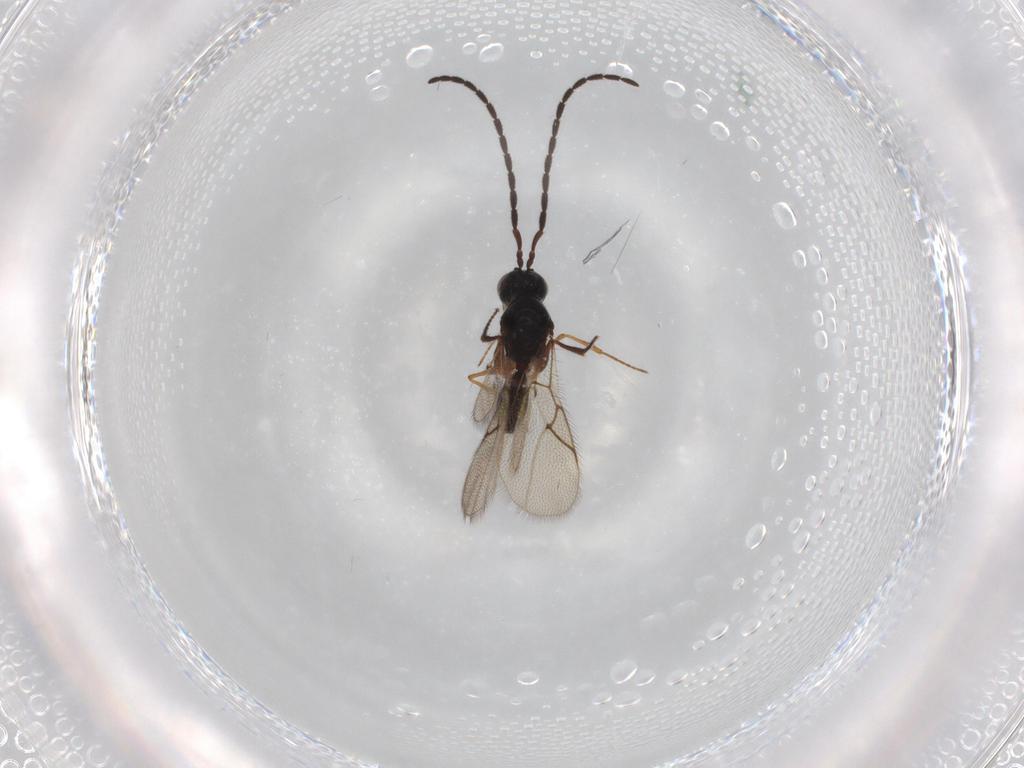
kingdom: Animalia
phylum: Arthropoda
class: Insecta
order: Hymenoptera
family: Figitidae
